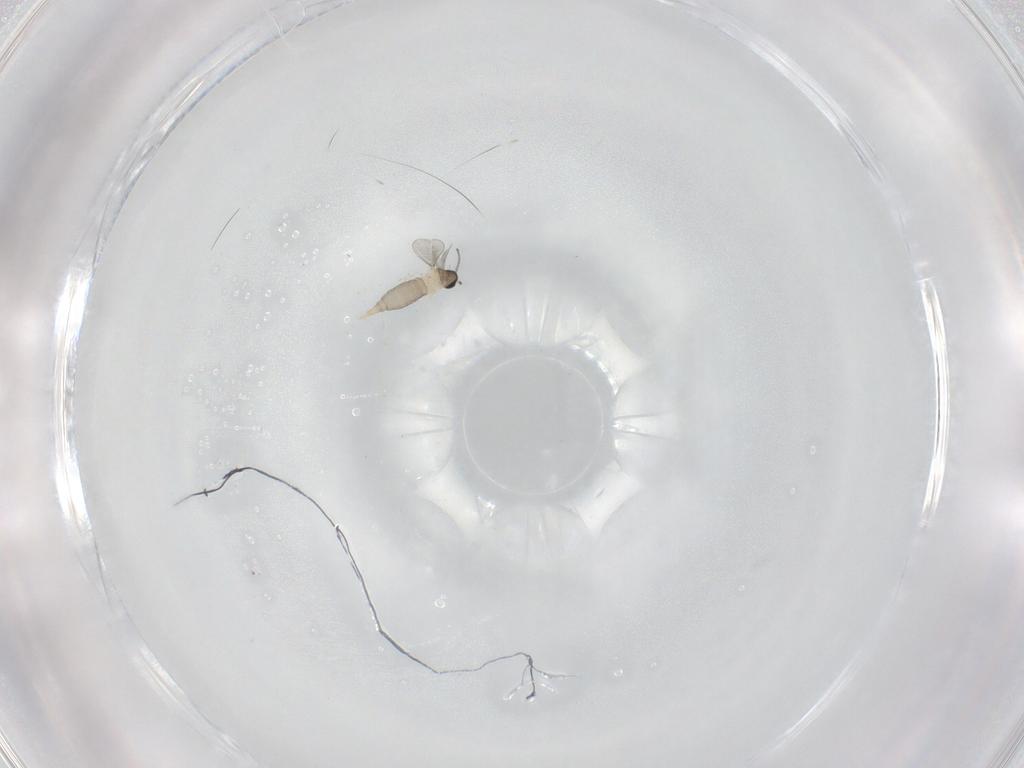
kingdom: Animalia
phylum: Arthropoda
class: Insecta
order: Diptera
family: Cecidomyiidae
